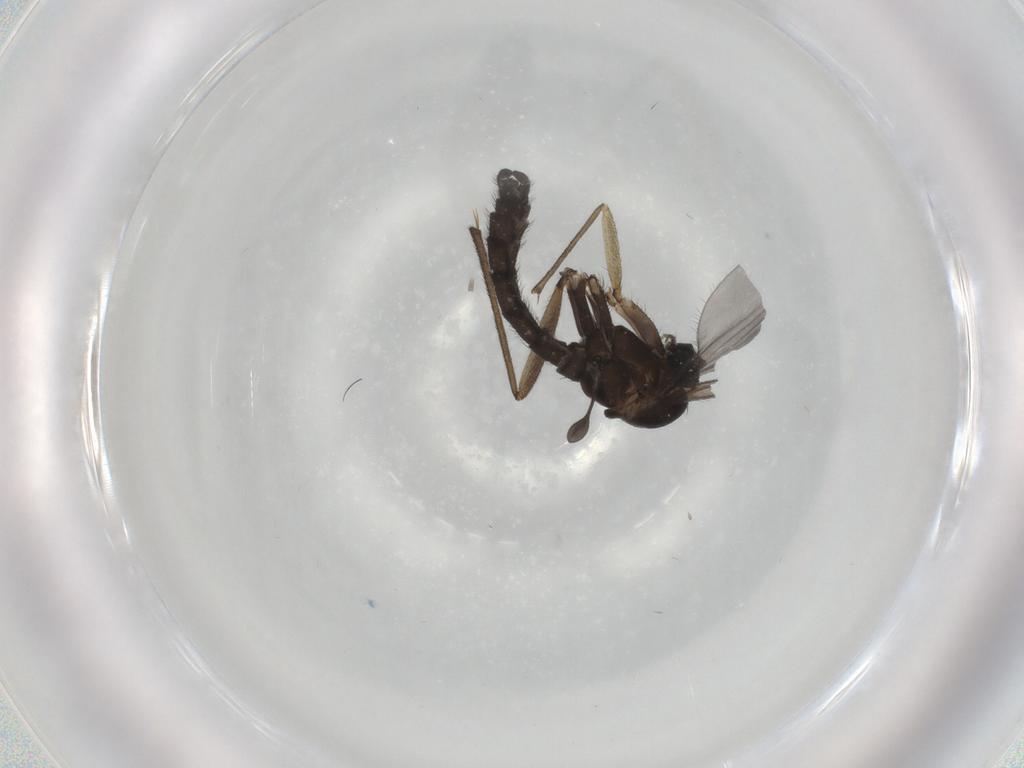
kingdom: Animalia
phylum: Arthropoda
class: Insecta
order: Diptera
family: Sciaridae
